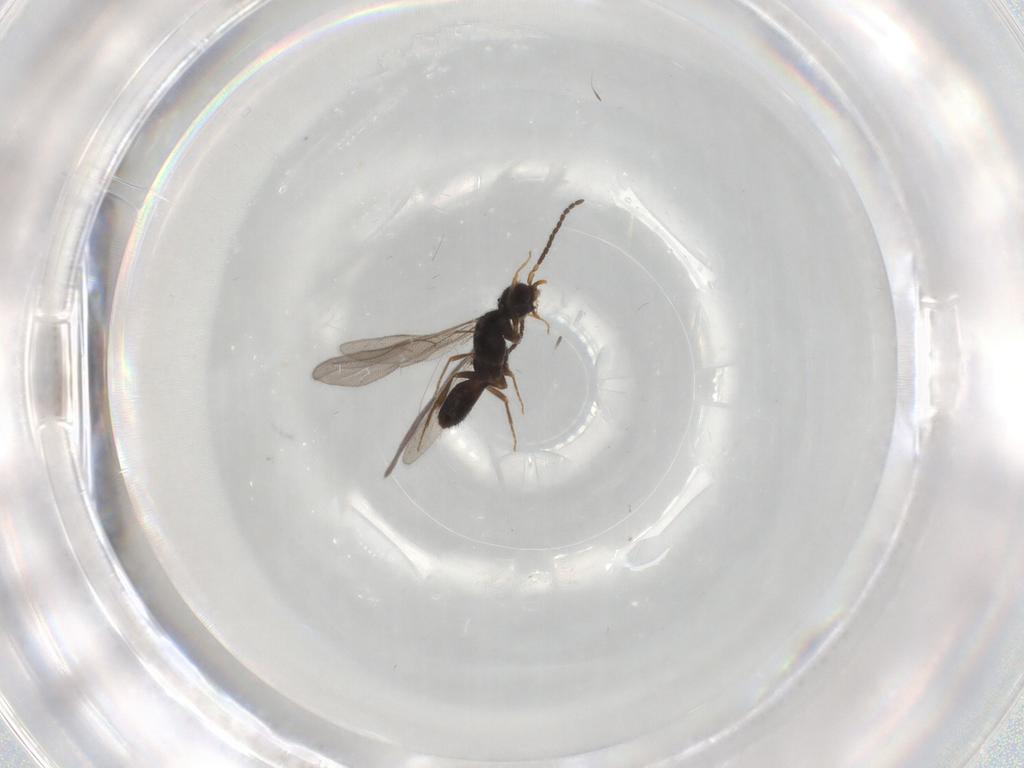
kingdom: Animalia
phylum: Arthropoda
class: Insecta
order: Hymenoptera
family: Bethylidae
